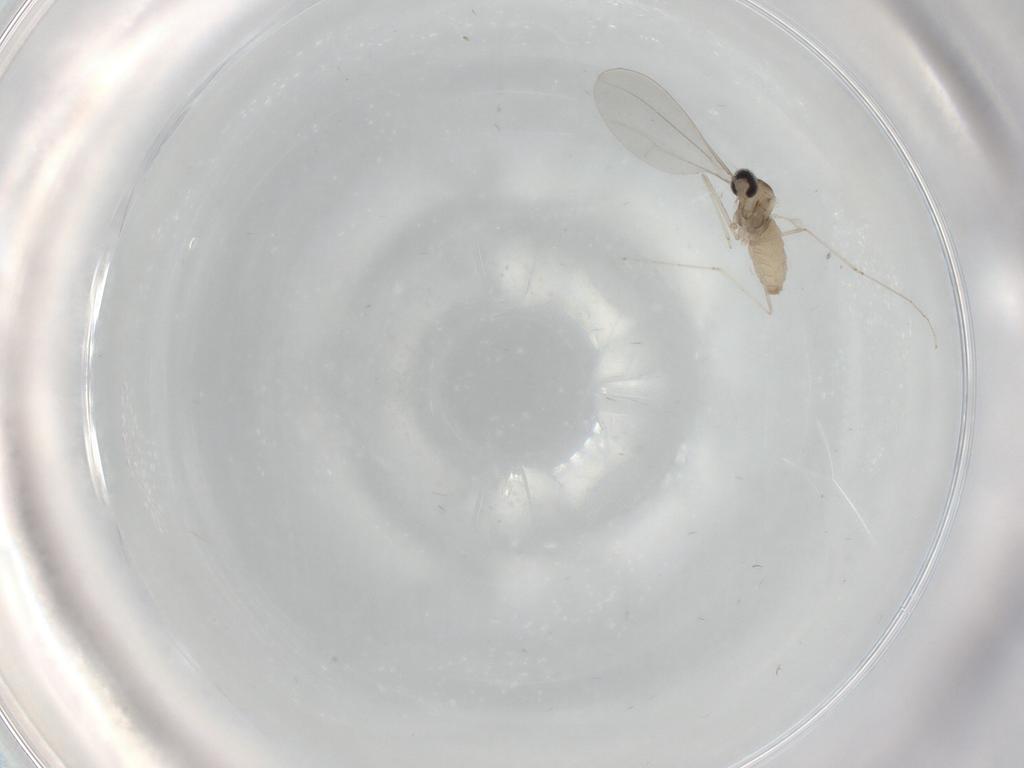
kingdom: Animalia
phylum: Arthropoda
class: Insecta
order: Diptera
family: Limoniidae
